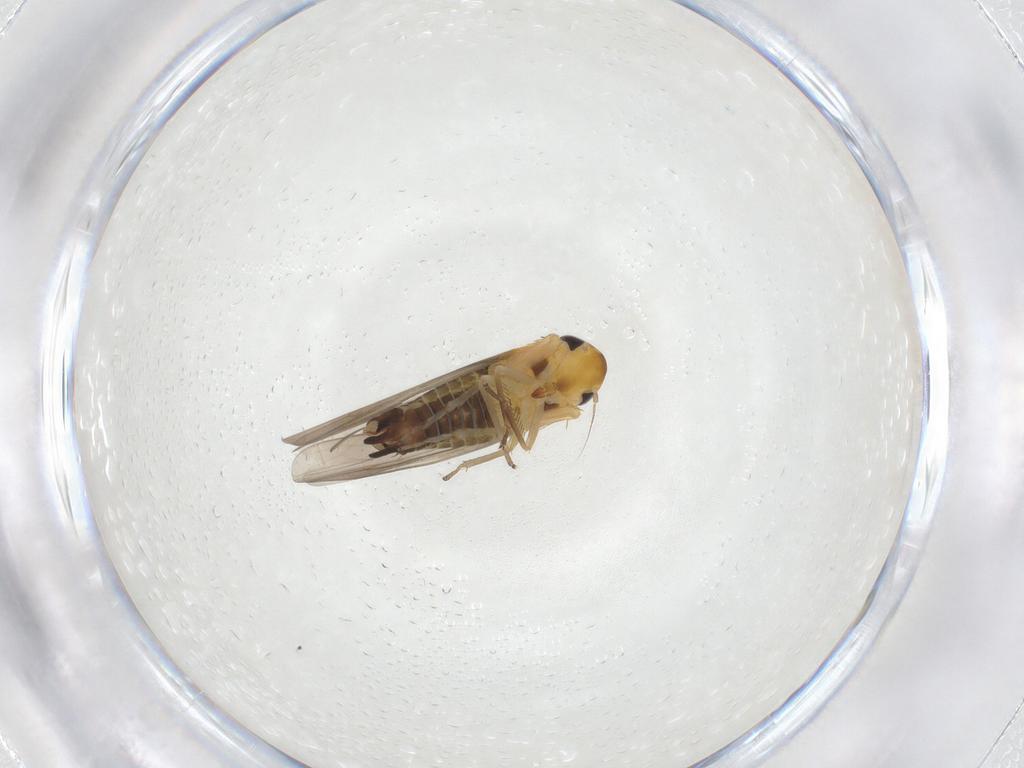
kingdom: Animalia
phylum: Arthropoda
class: Insecta
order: Hemiptera
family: Cicadellidae
